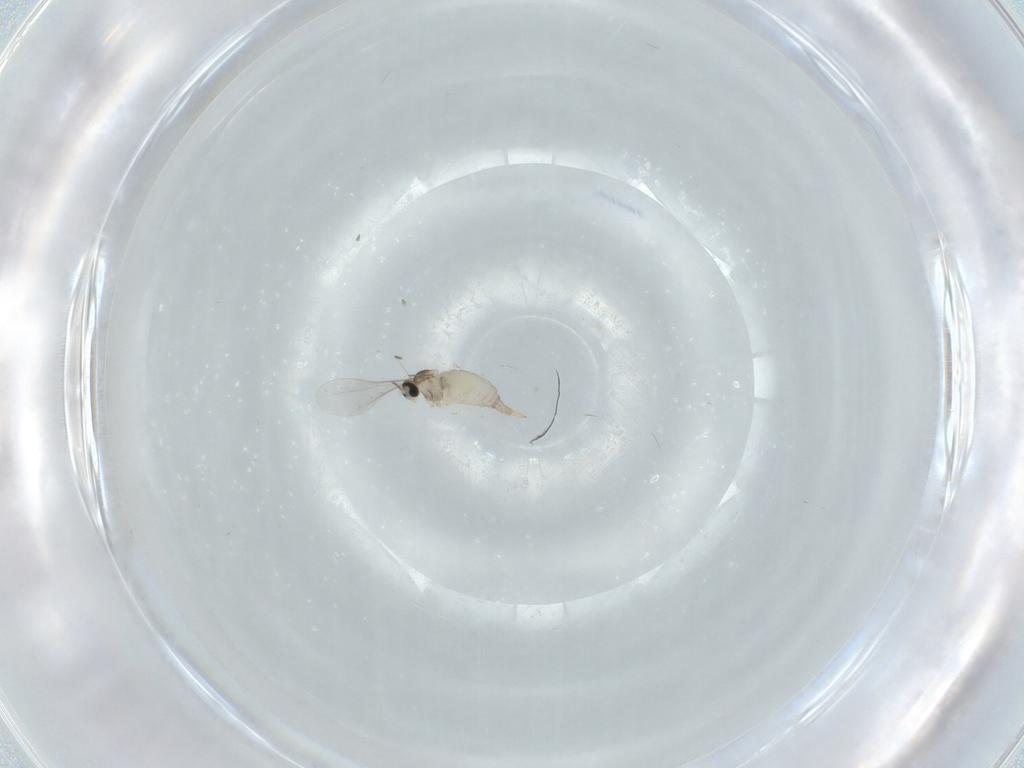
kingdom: Animalia
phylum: Arthropoda
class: Insecta
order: Diptera
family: Cecidomyiidae
